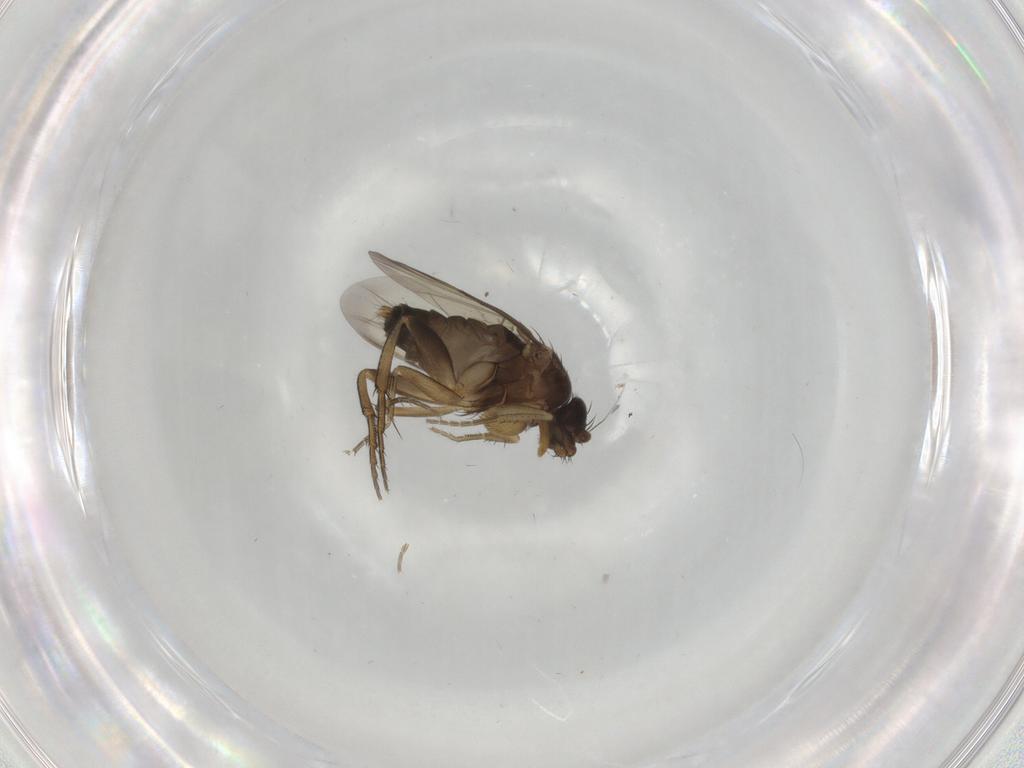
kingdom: Animalia
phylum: Arthropoda
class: Insecta
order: Diptera
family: Chironomidae
